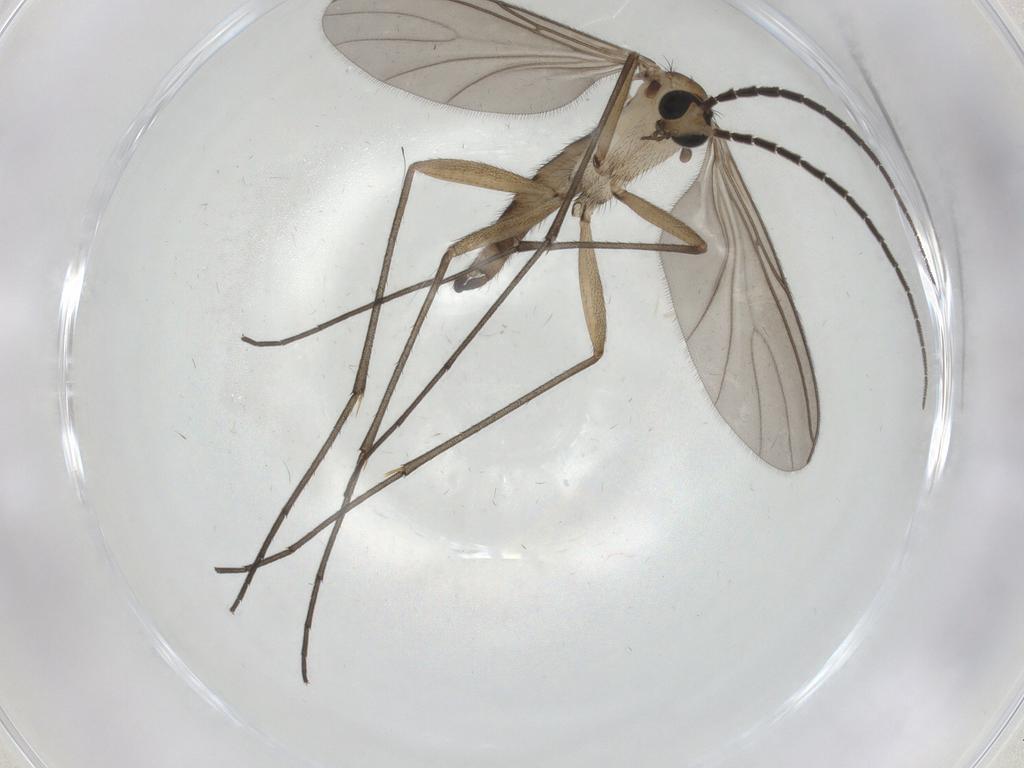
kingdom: Animalia
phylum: Arthropoda
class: Insecta
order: Diptera
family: Sciaridae
